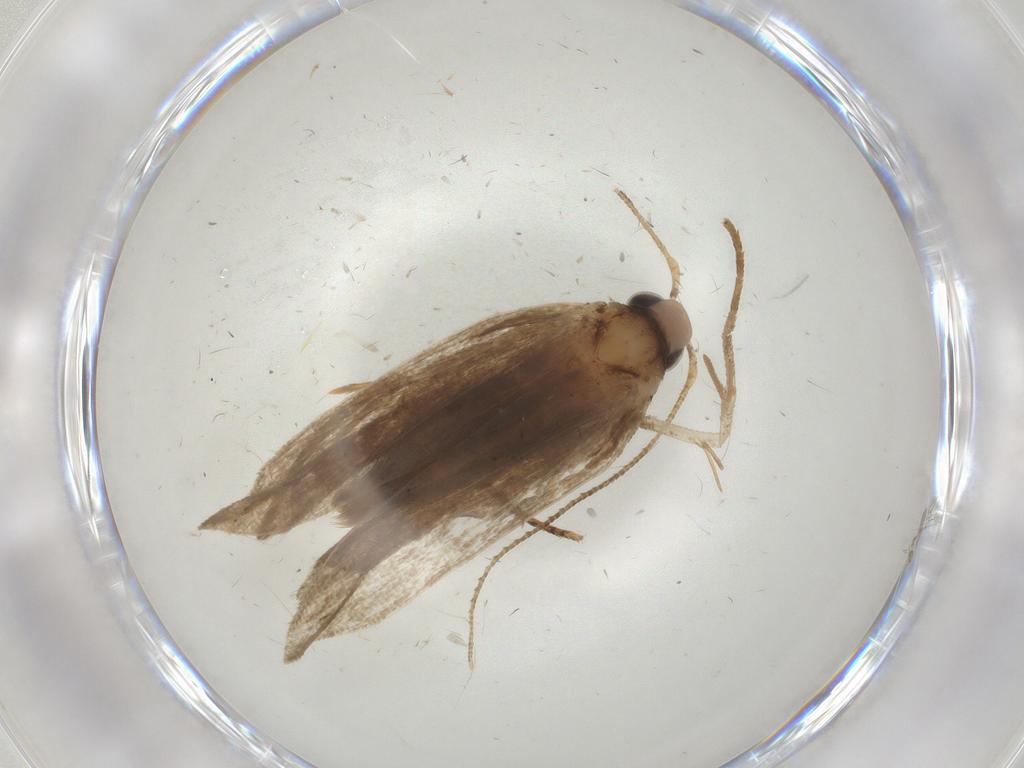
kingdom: Animalia
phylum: Arthropoda
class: Insecta
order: Lepidoptera
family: Gelechiidae
